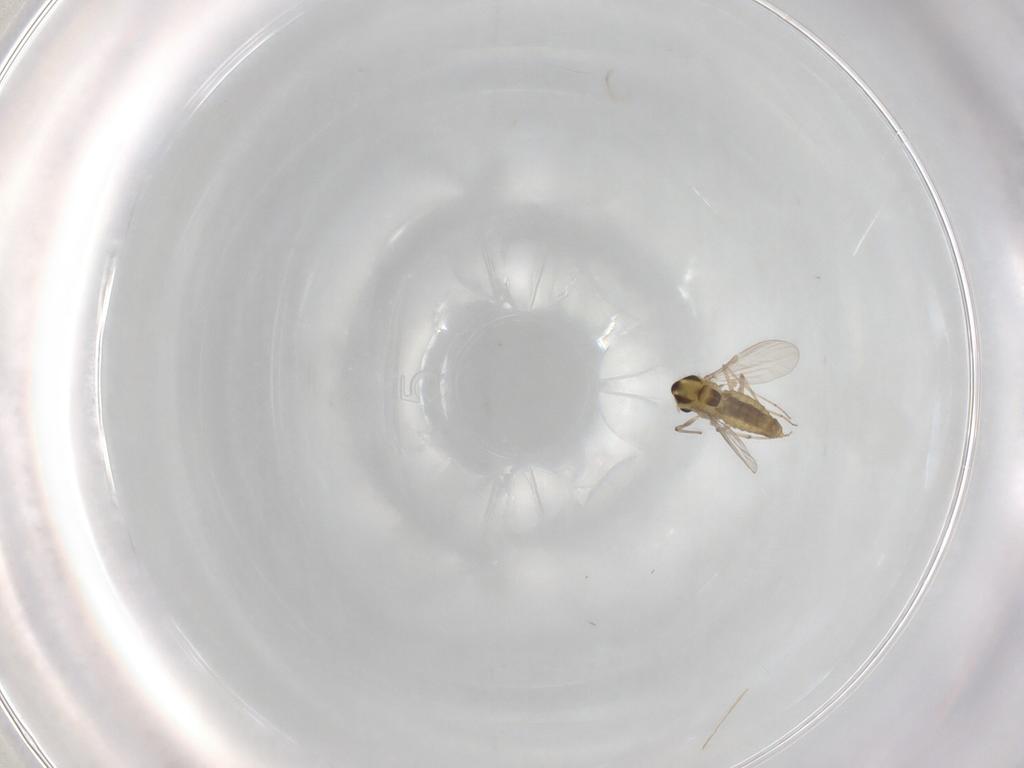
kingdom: Animalia
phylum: Arthropoda
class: Insecta
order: Diptera
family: Chironomidae
